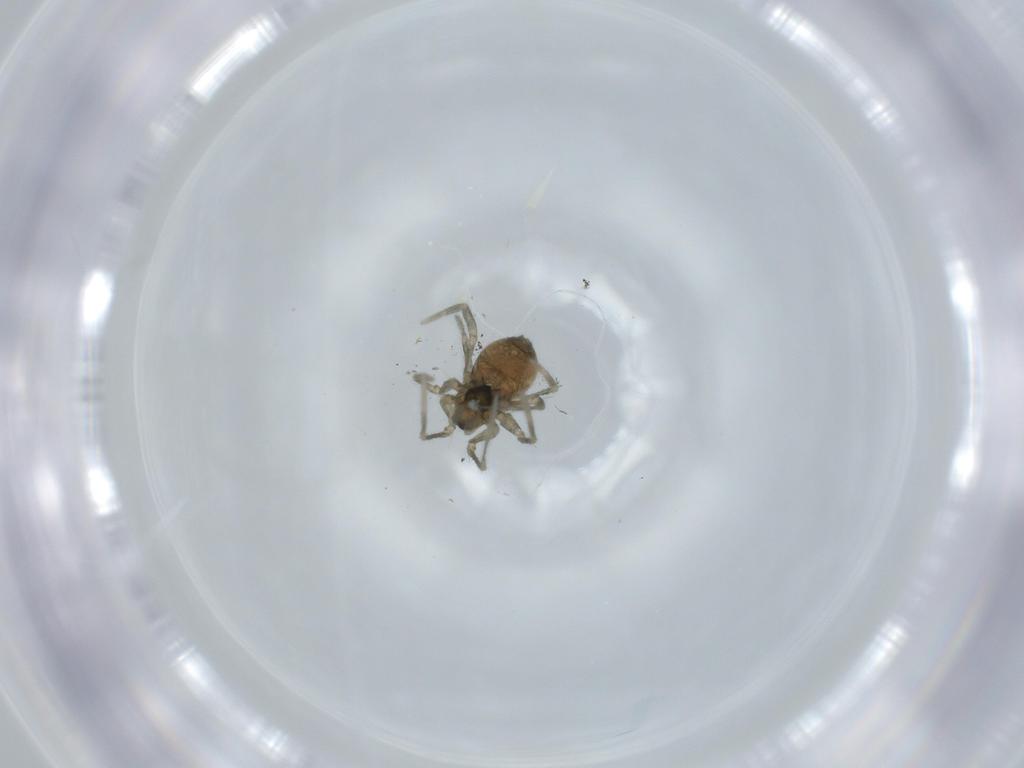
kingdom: Animalia
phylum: Arthropoda
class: Arachnida
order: Araneae
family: Linyphiidae
